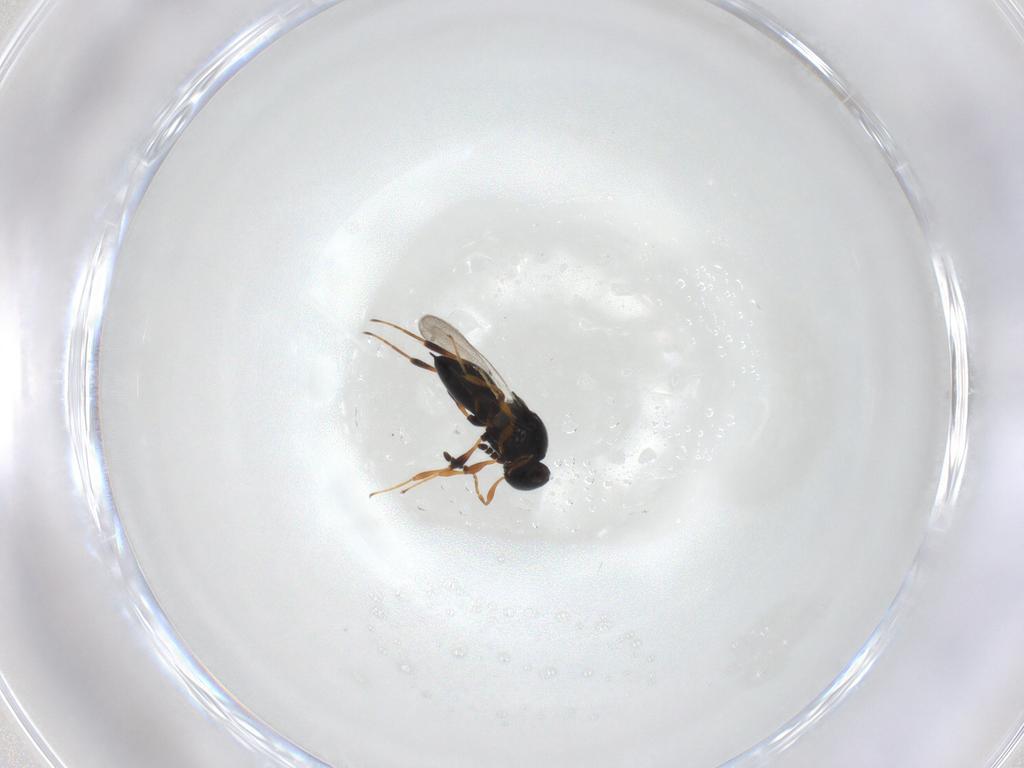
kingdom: Animalia
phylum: Arthropoda
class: Insecta
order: Hymenoptera
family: Platygastridae
